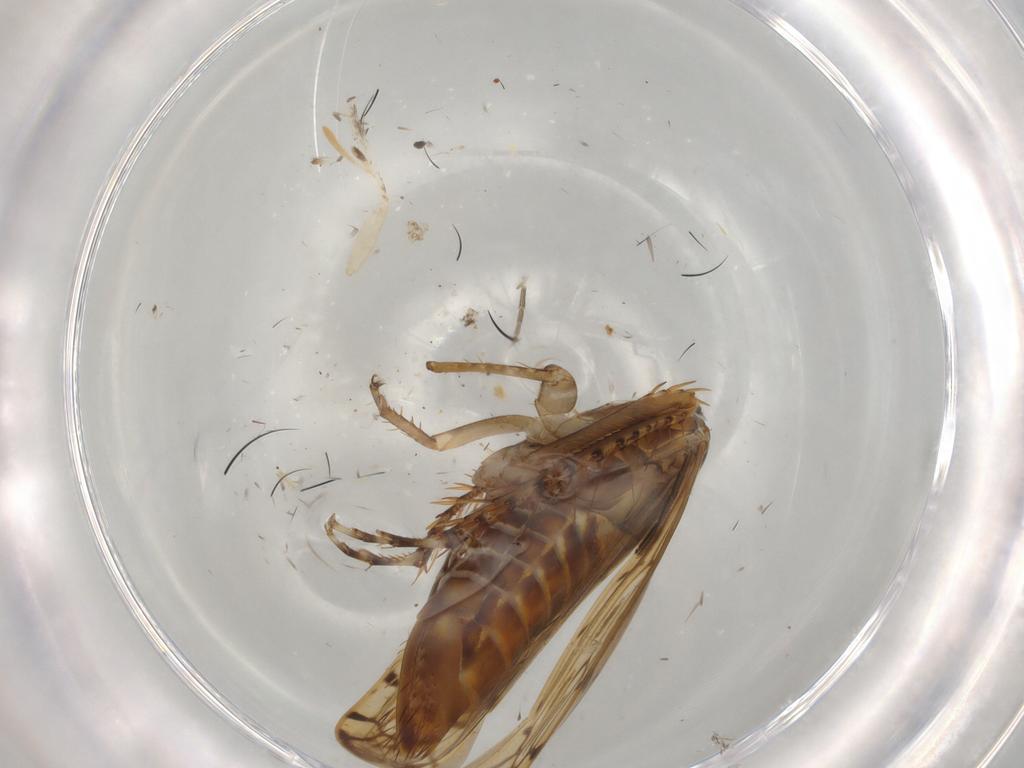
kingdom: Animalia
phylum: Arthropoda
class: Insecta
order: Hemiptera
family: Cicadellidae
